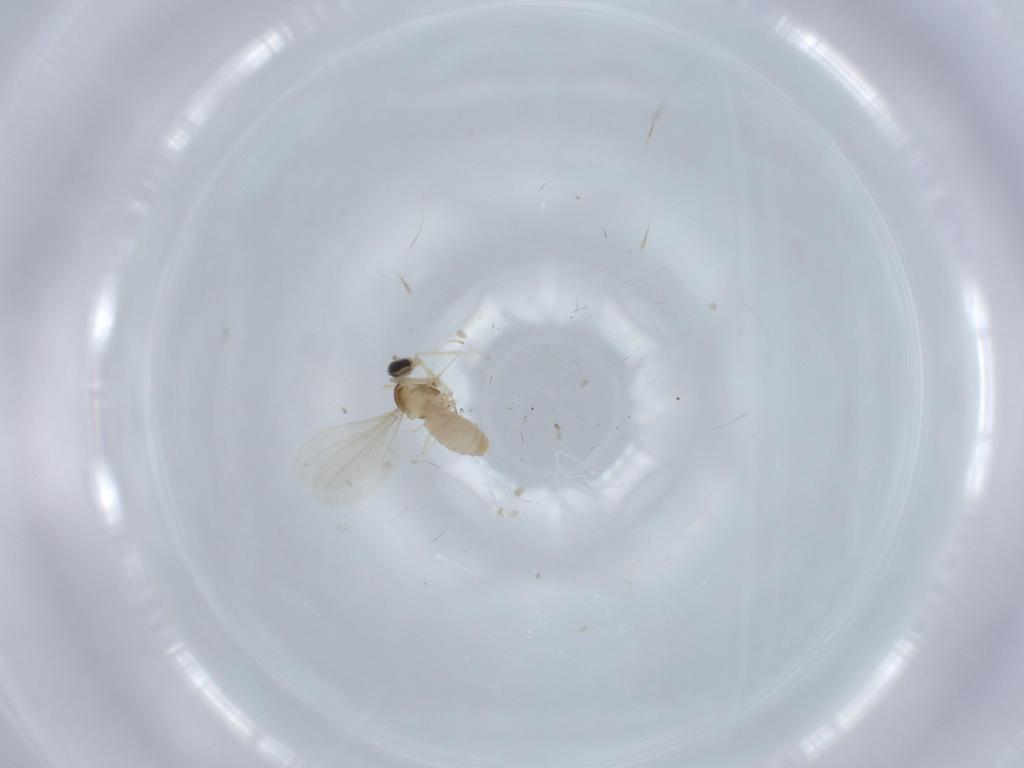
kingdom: Animalia
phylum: Arthropoda
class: Insecta
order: Diptera
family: Cecidomyiidae
